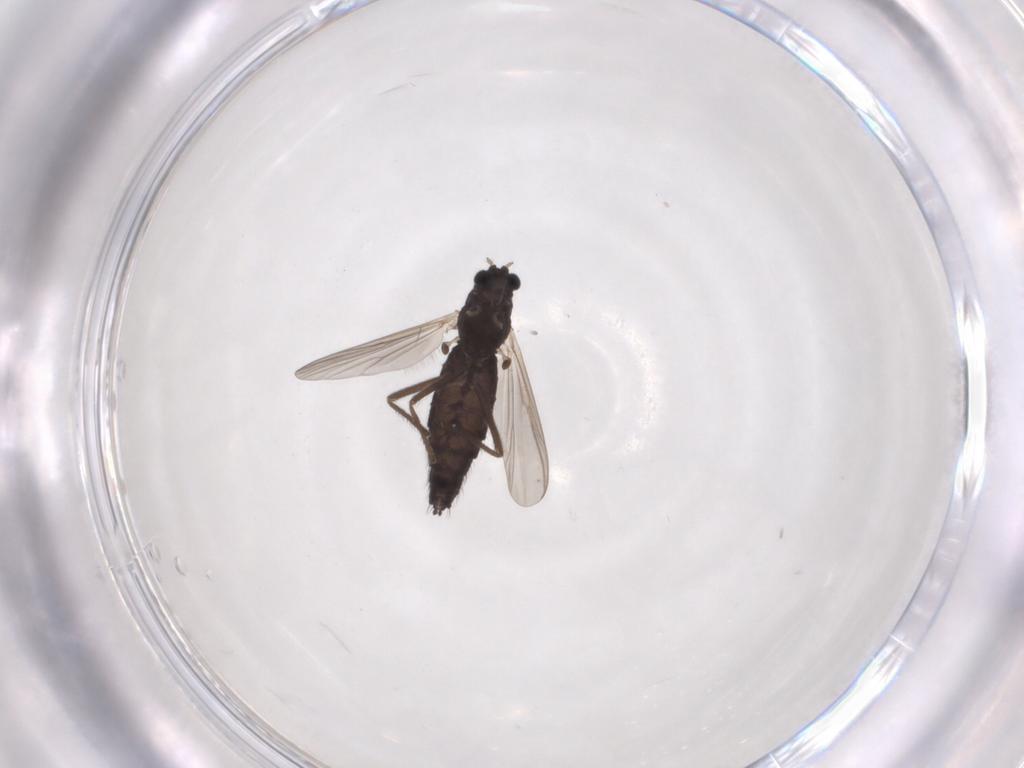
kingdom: Animalia
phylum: Arthropoda
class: Insecta
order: Diptera
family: Chironomidae
